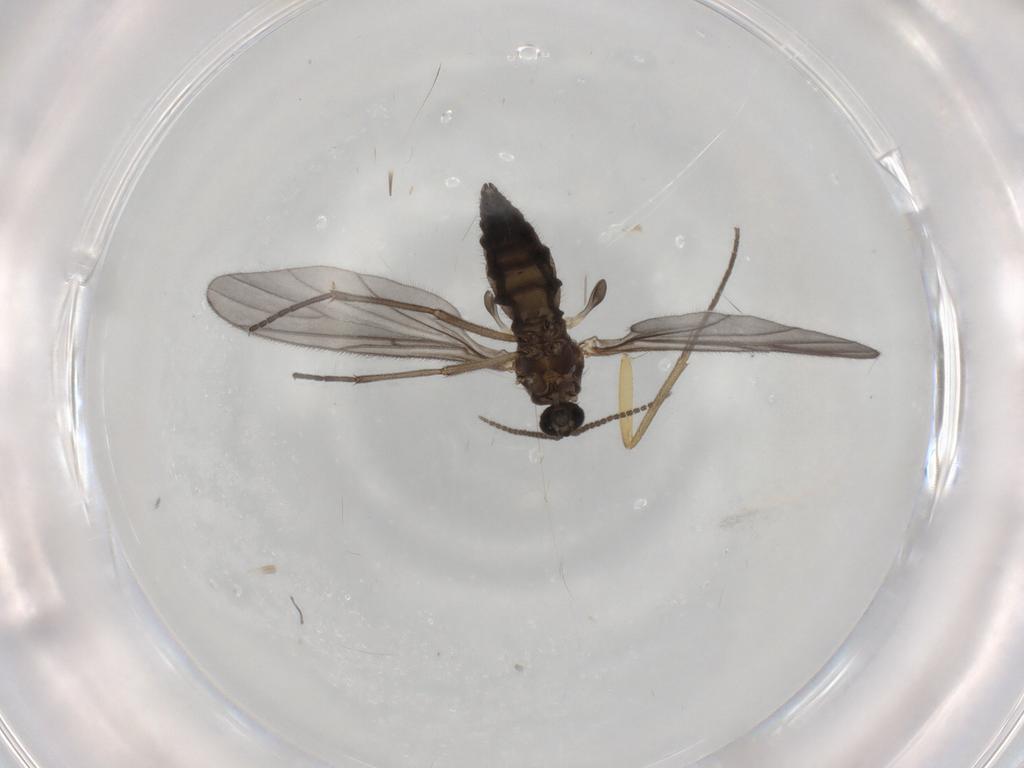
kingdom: Animalia
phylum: Arthropoda
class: Insecta
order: Diptera
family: Sciaridae
